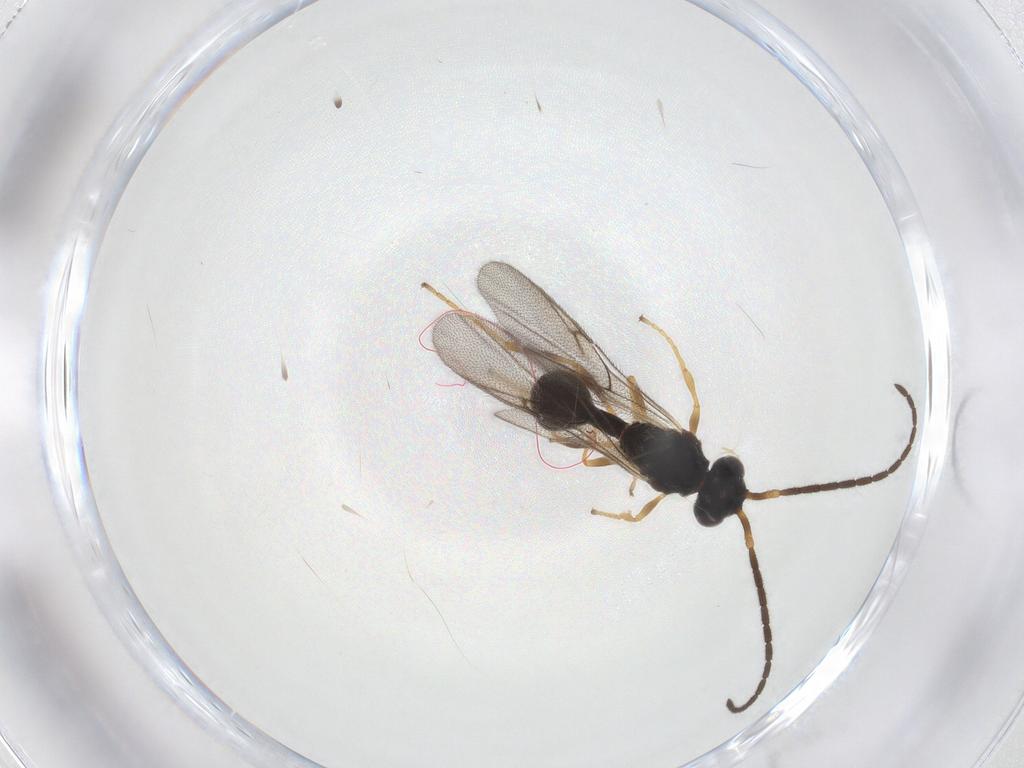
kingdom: Animalia
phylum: Arthropoda
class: Insecta
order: Hymenoptera
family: Diapriidae
